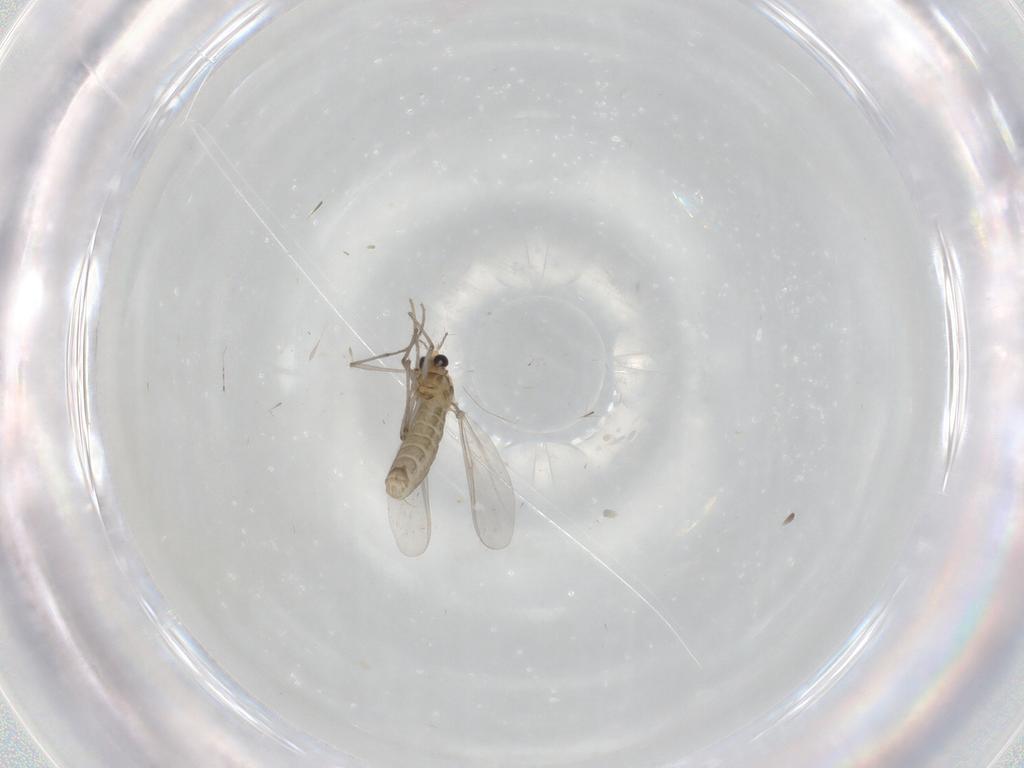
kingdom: Animalia
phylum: Arthropoda
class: Insecta
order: Diptera
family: Chironomidae
